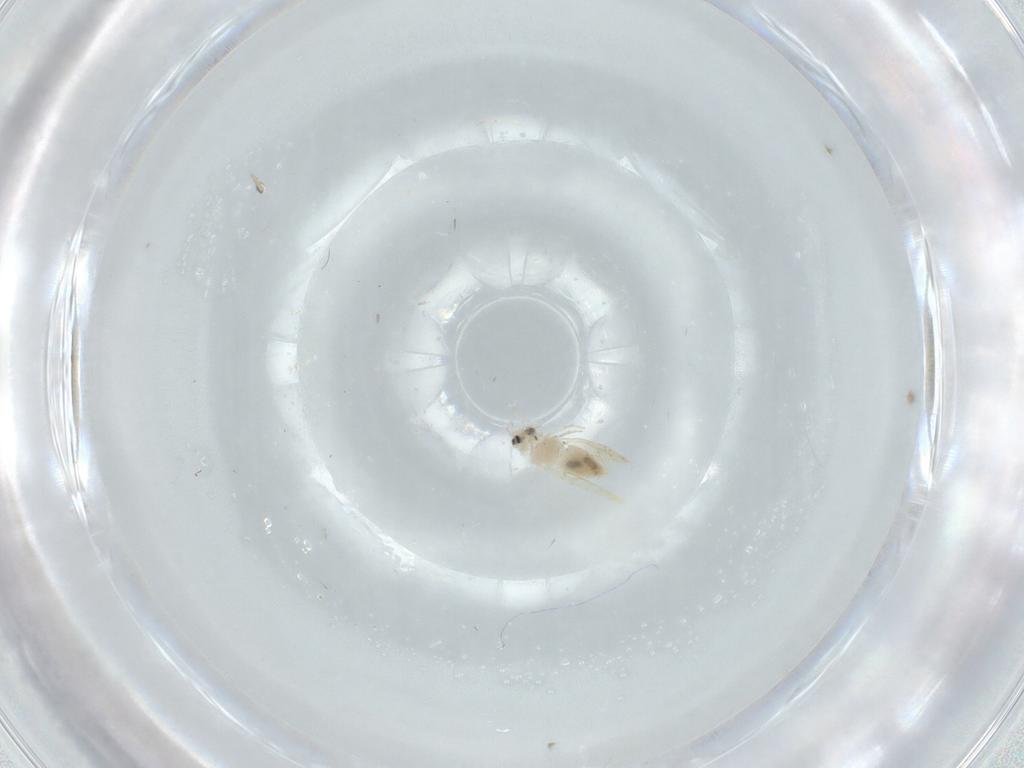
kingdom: Animalia
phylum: Arthropoda
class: Insecta
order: Hemiptera
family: Aleyrodidae
